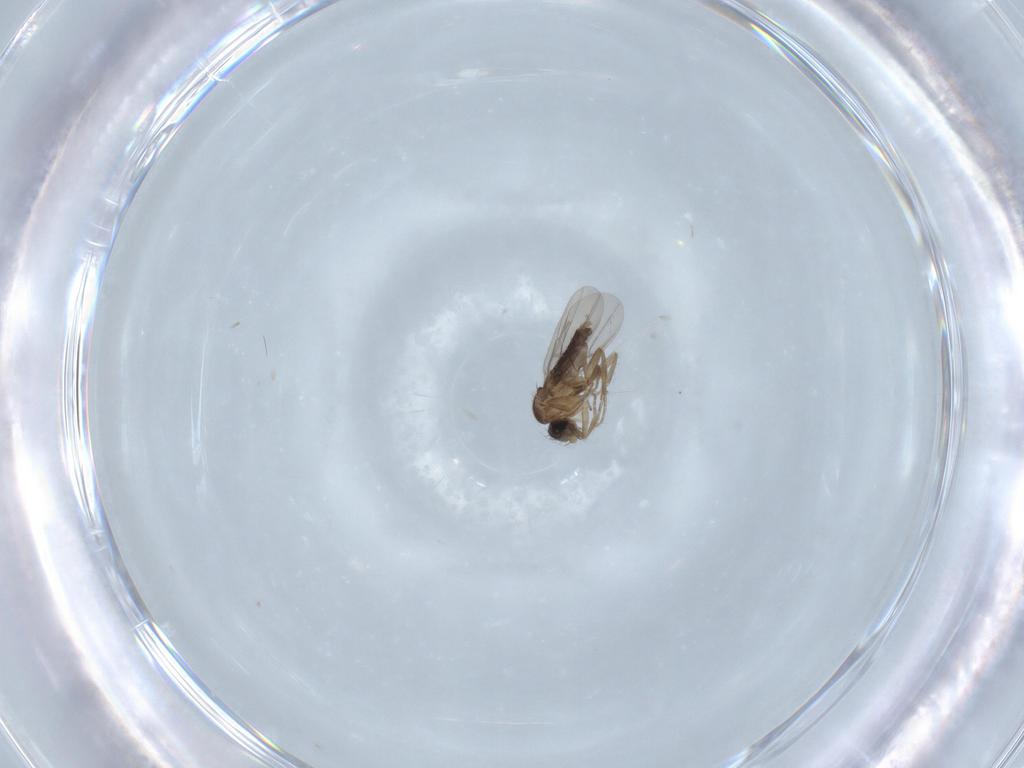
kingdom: Animalia
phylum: Arthropoda
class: Insecta
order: Diptera
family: Phoridae
